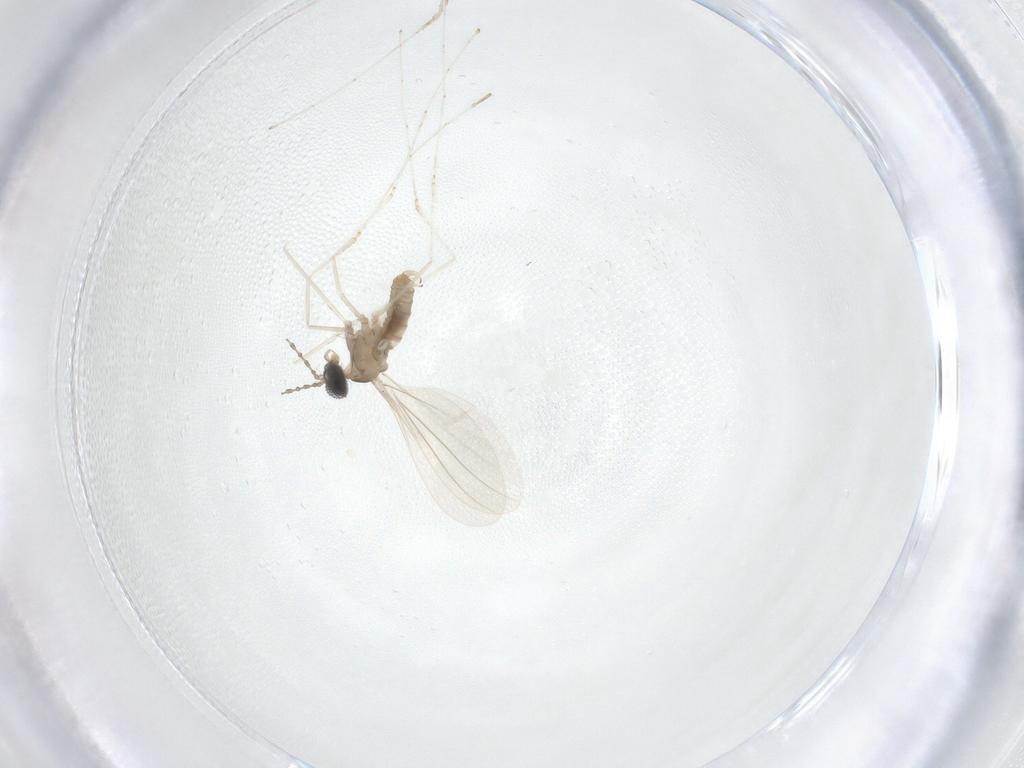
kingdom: Animalia
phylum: Arthropoda
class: Insecta
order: Diptera
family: Cecidomyiidae
